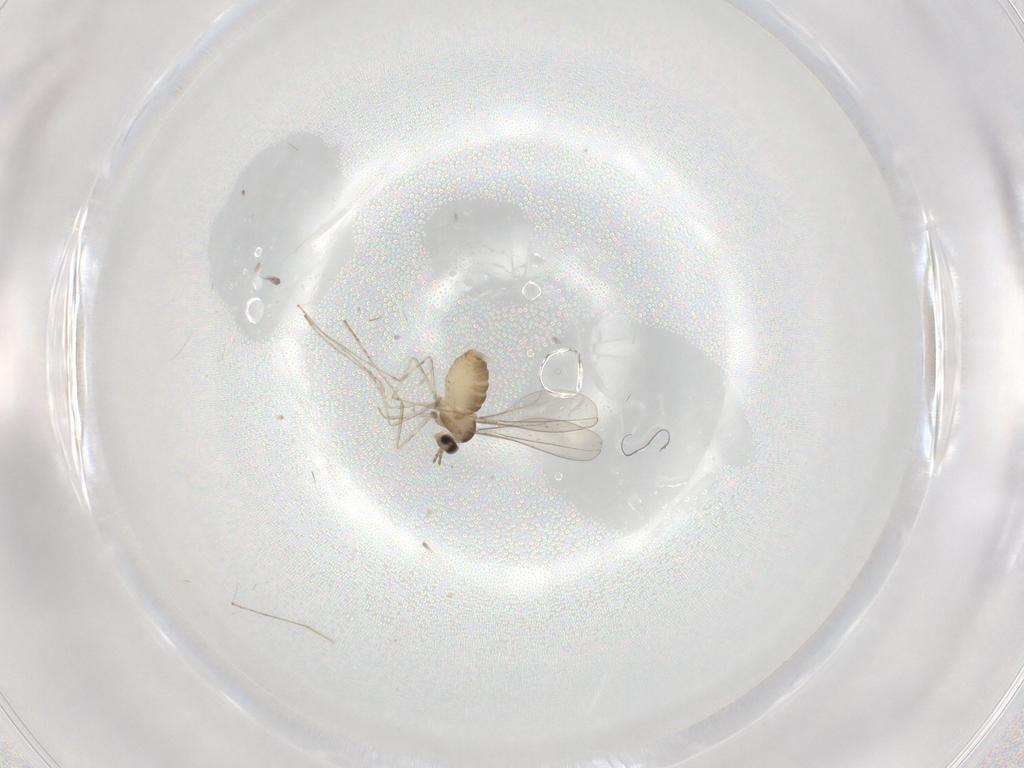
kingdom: Animalia
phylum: Arthropoda
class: Insecta
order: Diptera
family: Cecidomyiidae
